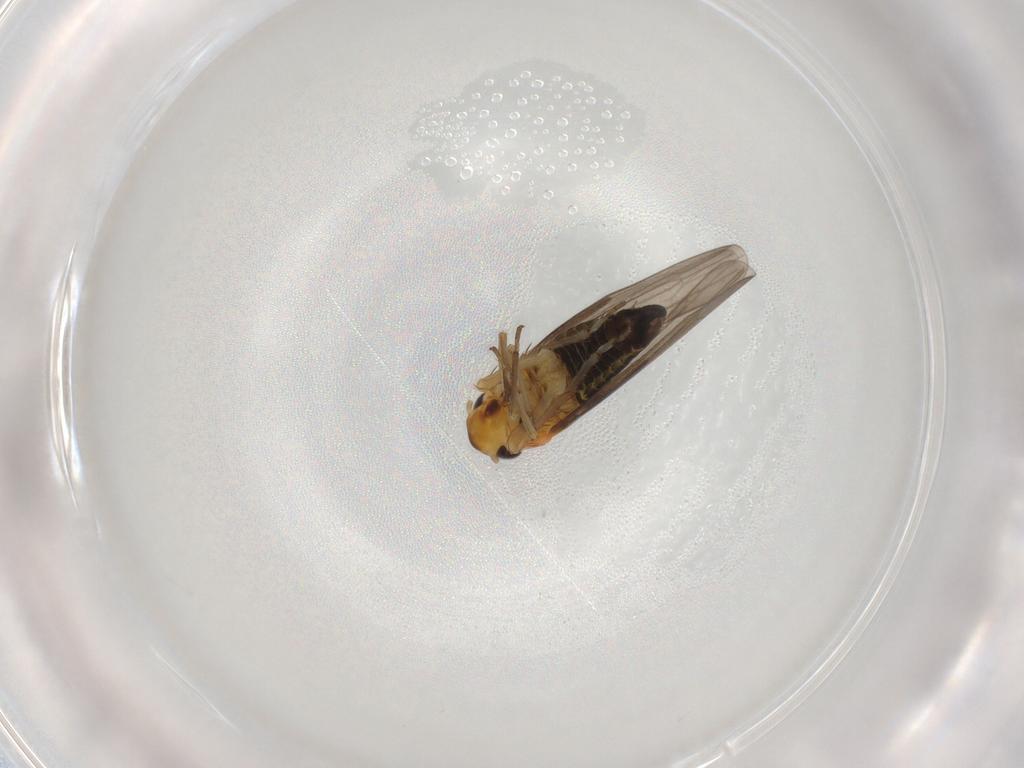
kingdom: Animalia
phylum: Arthropoda
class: Insecta
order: Hemiptera
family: Cicadellidae
